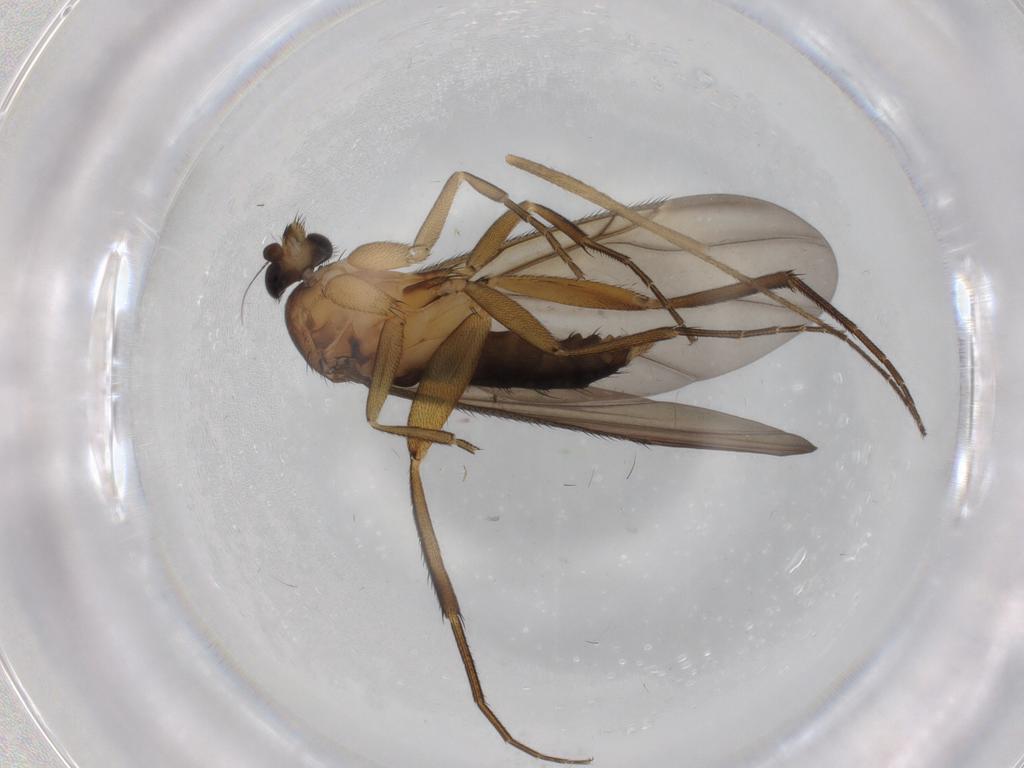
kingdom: Animalia
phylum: Arthropoda
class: Insecta
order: Diptera
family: Phoridae
